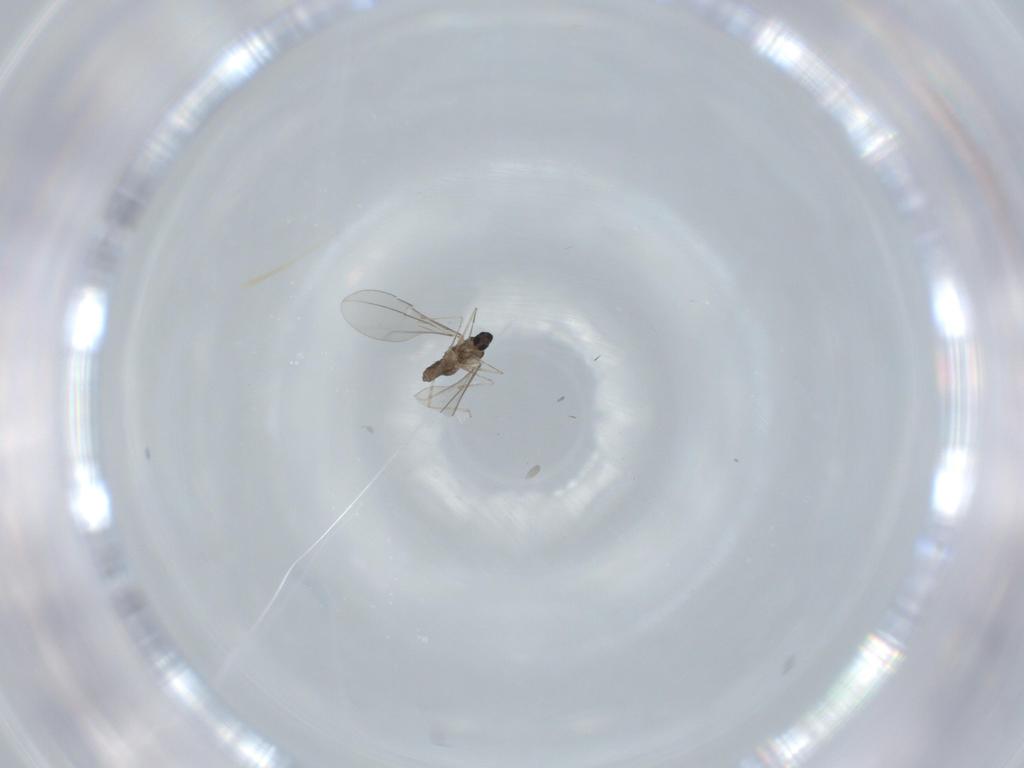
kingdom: Animalia
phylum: Arthropoda
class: Insecta
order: Diptera
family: Cecidomyiidae
